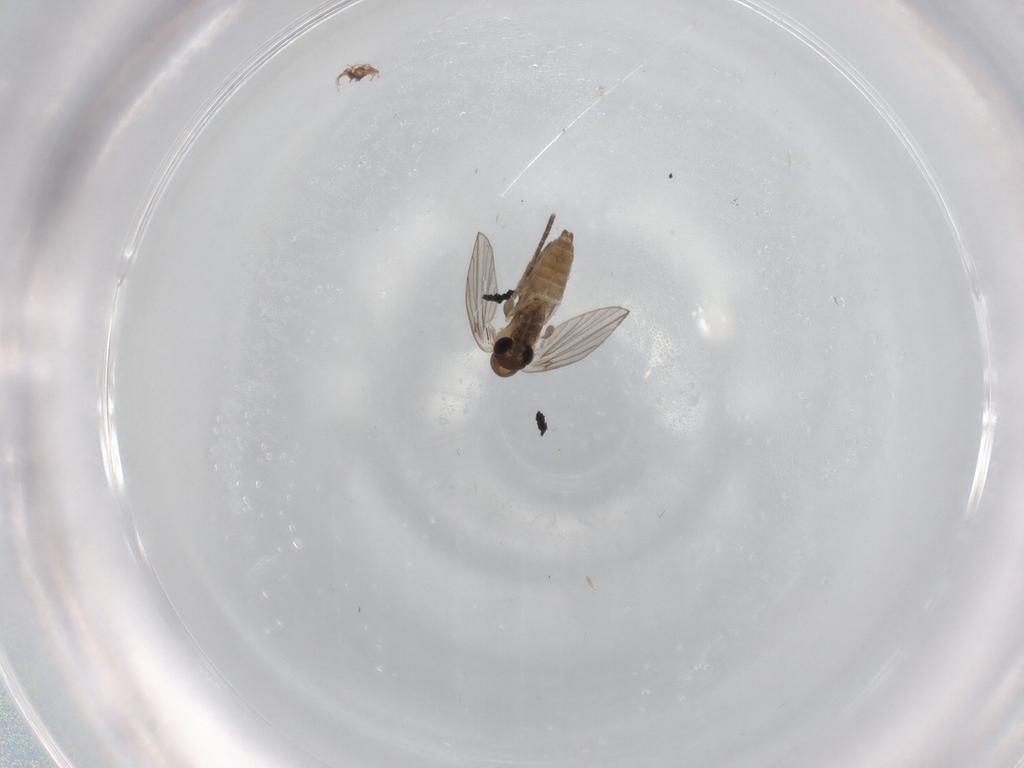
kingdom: Animalia
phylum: Arthropoda
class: Insecta
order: Diptera
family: Chironomidae
